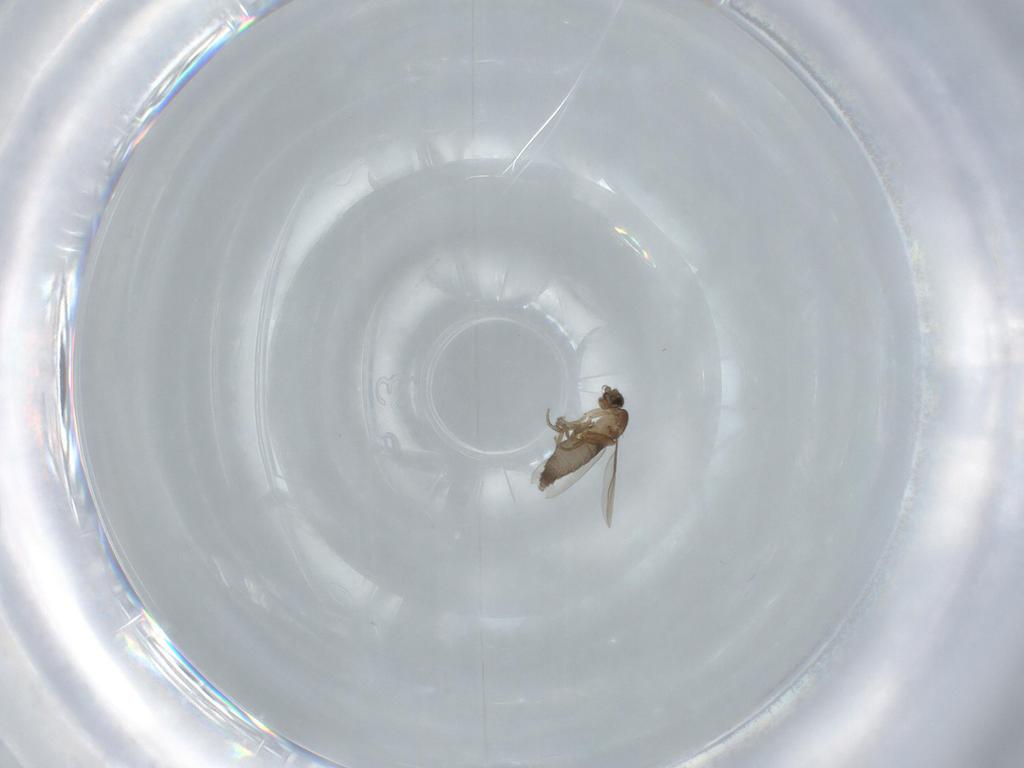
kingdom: Animalia
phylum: Arthropoda
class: Insecta
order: Diptera
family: Phoridae
